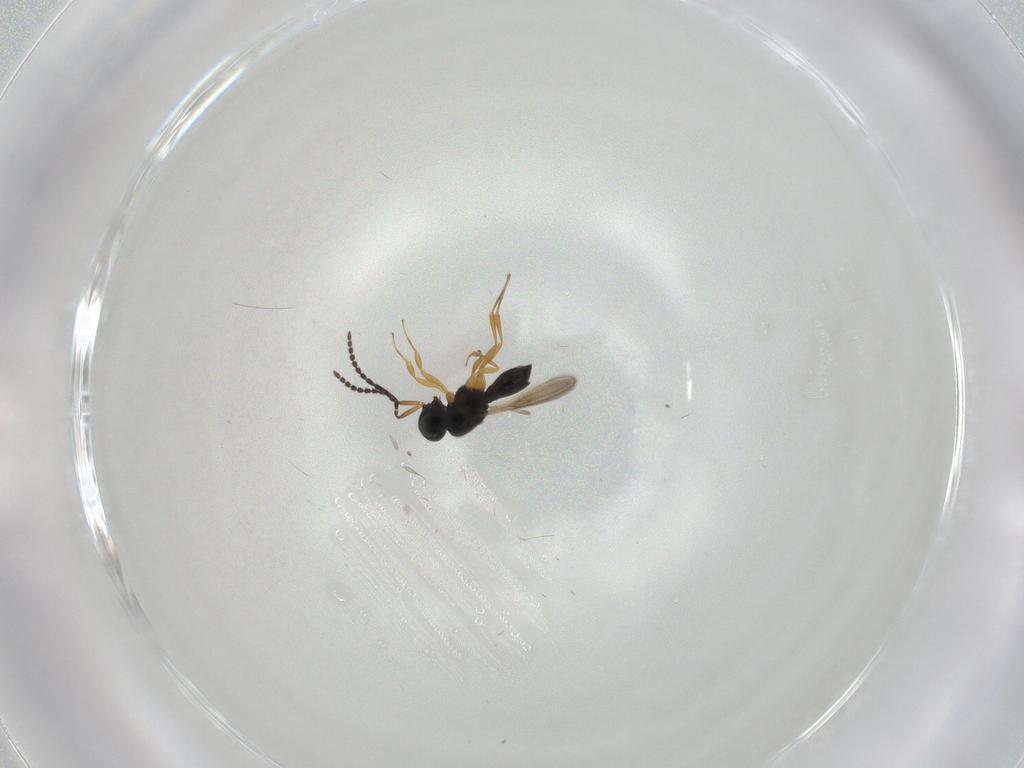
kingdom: Animalia
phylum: Arthropoda
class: Insecta
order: Hymenoptera
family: Scelionidae
